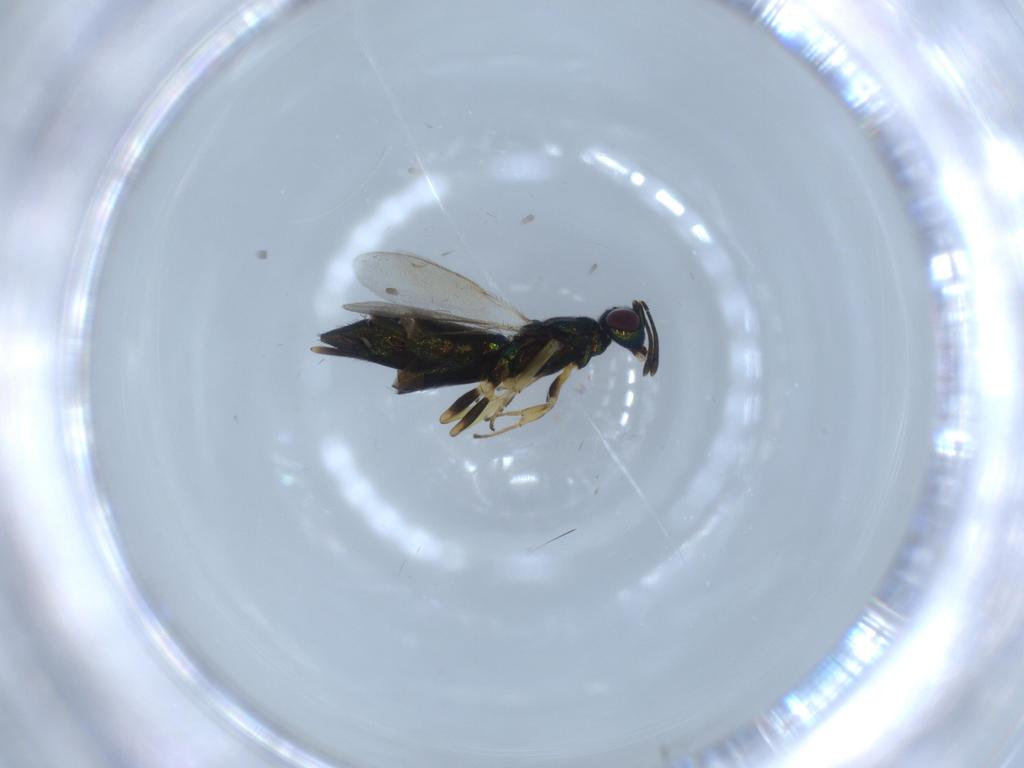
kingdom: Animalia
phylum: Arthropoda
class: Insecta
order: Hymenoptera
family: Eupelmidae
